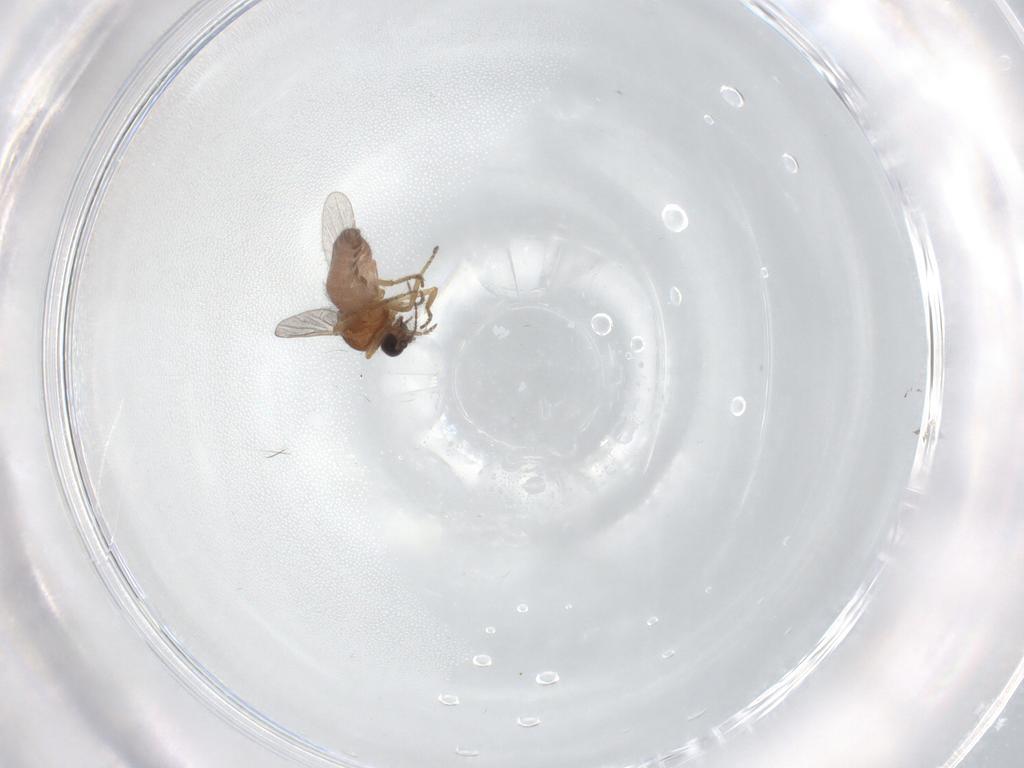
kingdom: Animalia
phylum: Arthropoda
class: Insecta
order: Diptera
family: Ceratopogonidae
